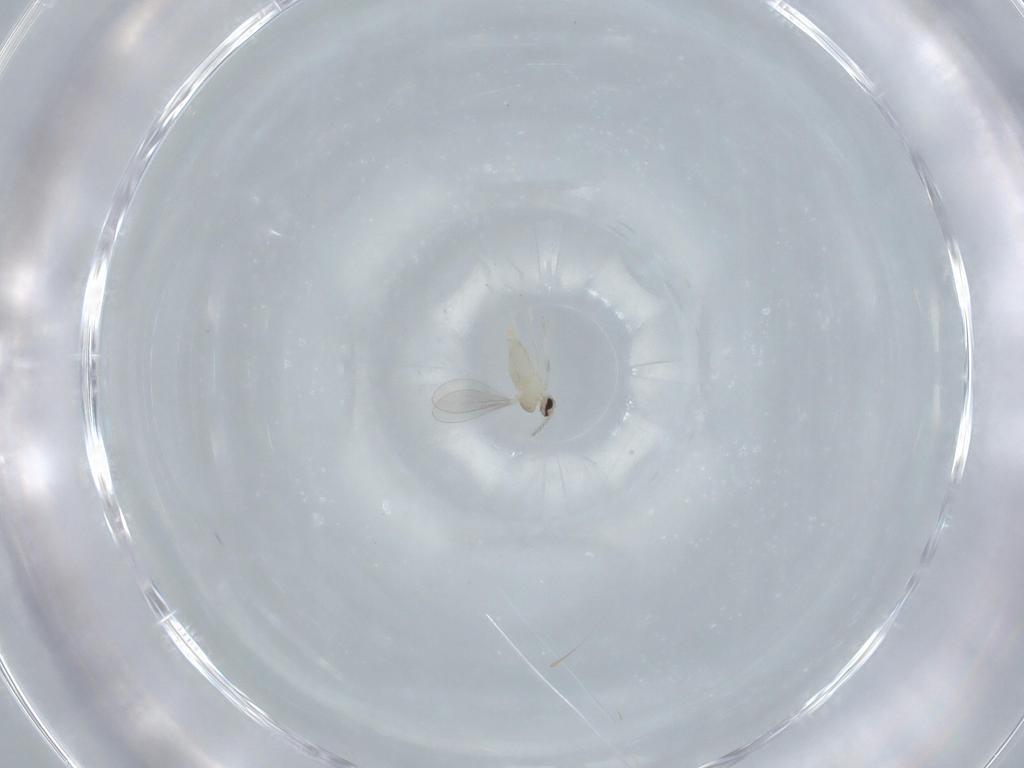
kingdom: Animalia
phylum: Arthropoda
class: Insecta
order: Diptera
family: Cecidomyiidae
